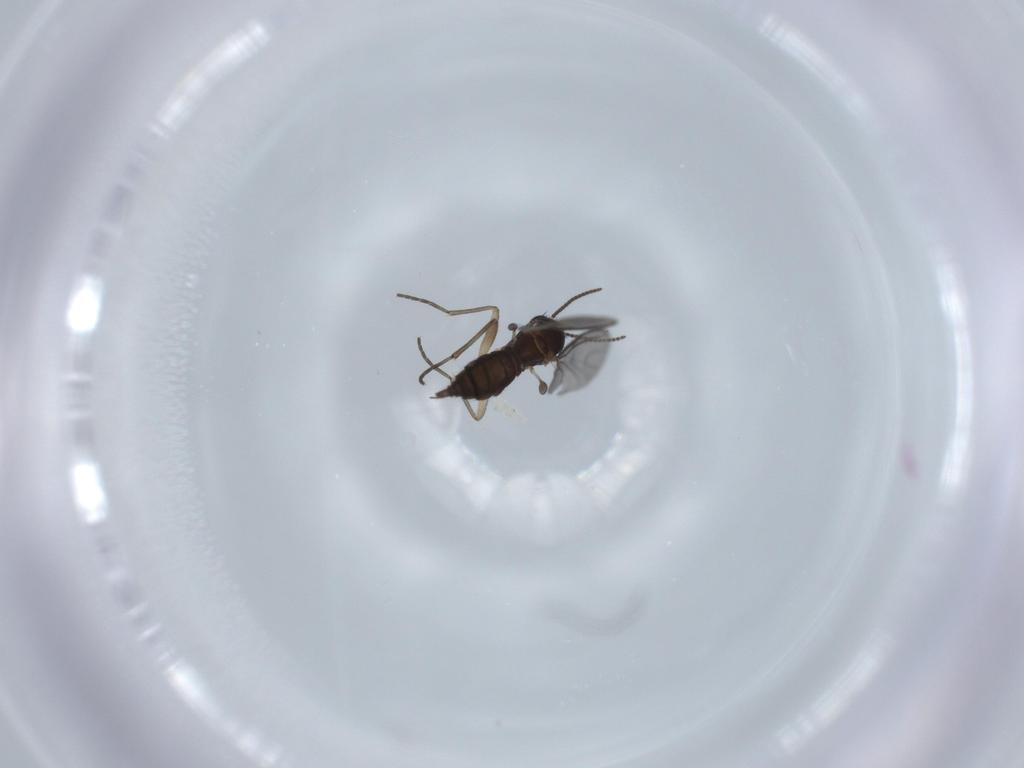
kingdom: Animalia
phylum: Arthropoda
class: Insecta
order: Diptera
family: Sciaridae
